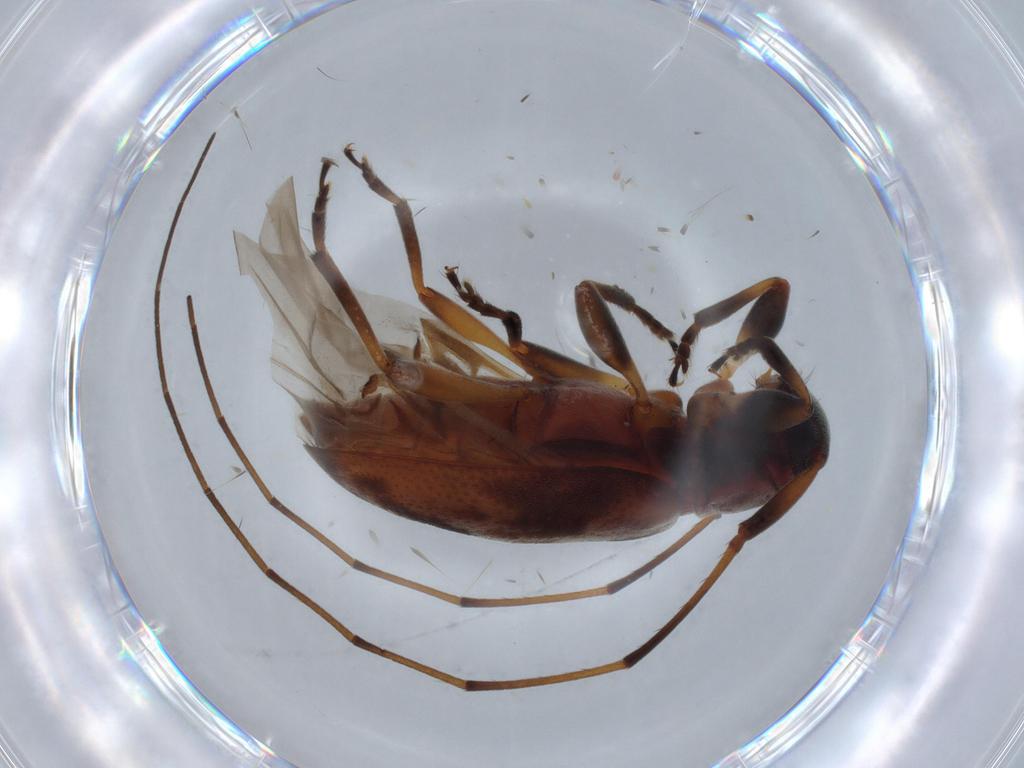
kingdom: Animalia
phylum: Arthropoda
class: Insecta
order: Coleoptera
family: Cerambycidae
